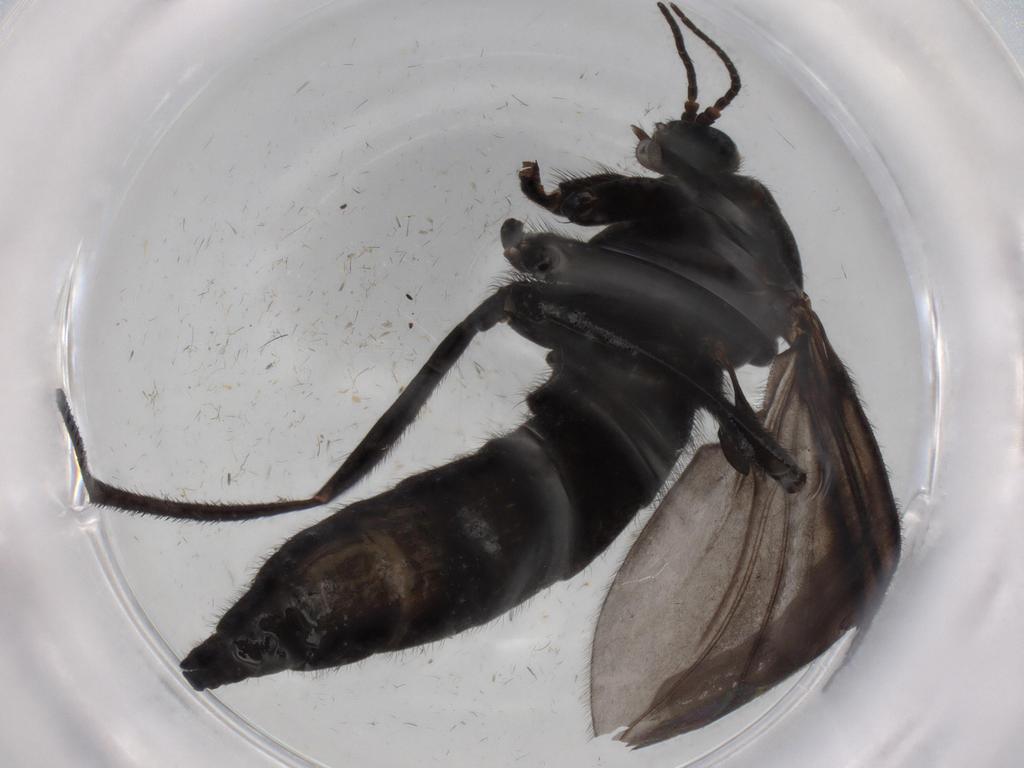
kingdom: Animalia
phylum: Arthropoda
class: Insecta
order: Diptera
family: Sciaridae
